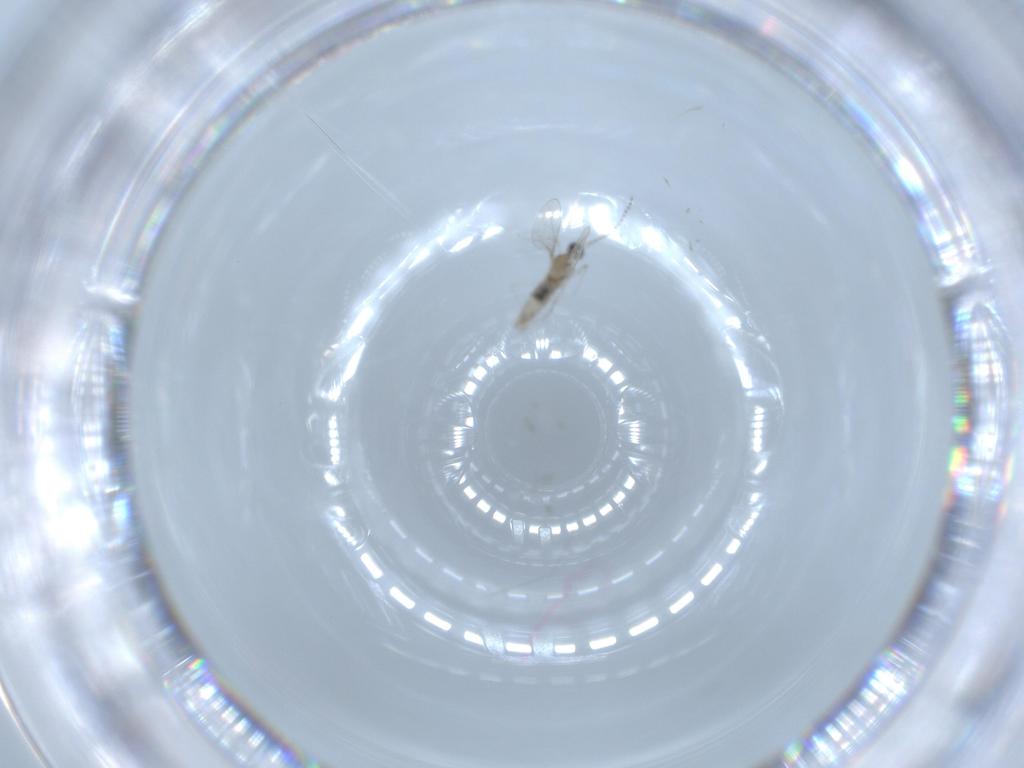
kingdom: Animalia
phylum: Arthropoda
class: Insecta
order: Diptera
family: Cecidomyiidae
